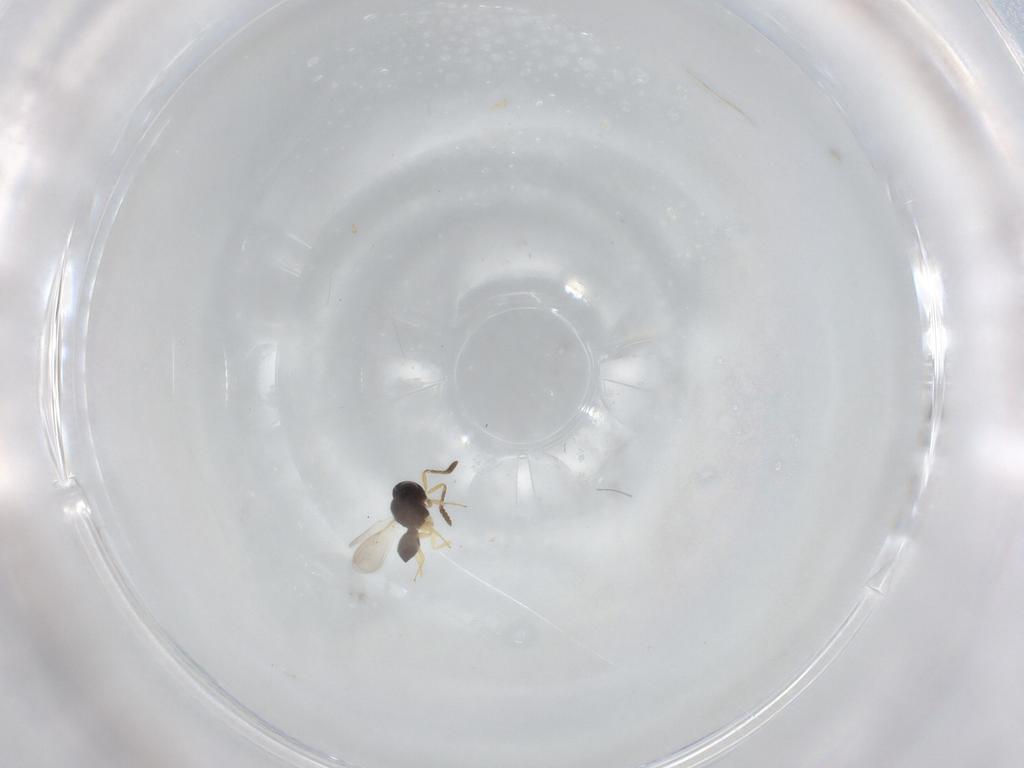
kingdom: Animalia
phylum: Arthropoda
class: Insecta
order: Hymenoptera
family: Scelionidae
